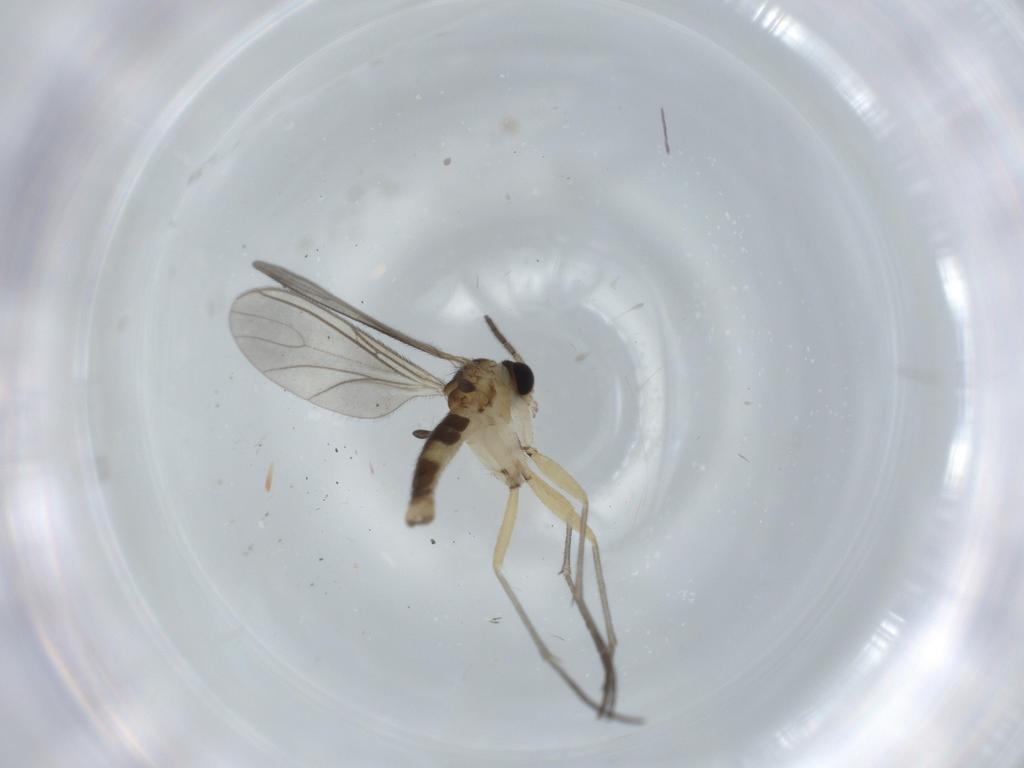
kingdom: Animalia
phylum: Arthropoda
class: Insecta
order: Diptera
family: Sciaridae
